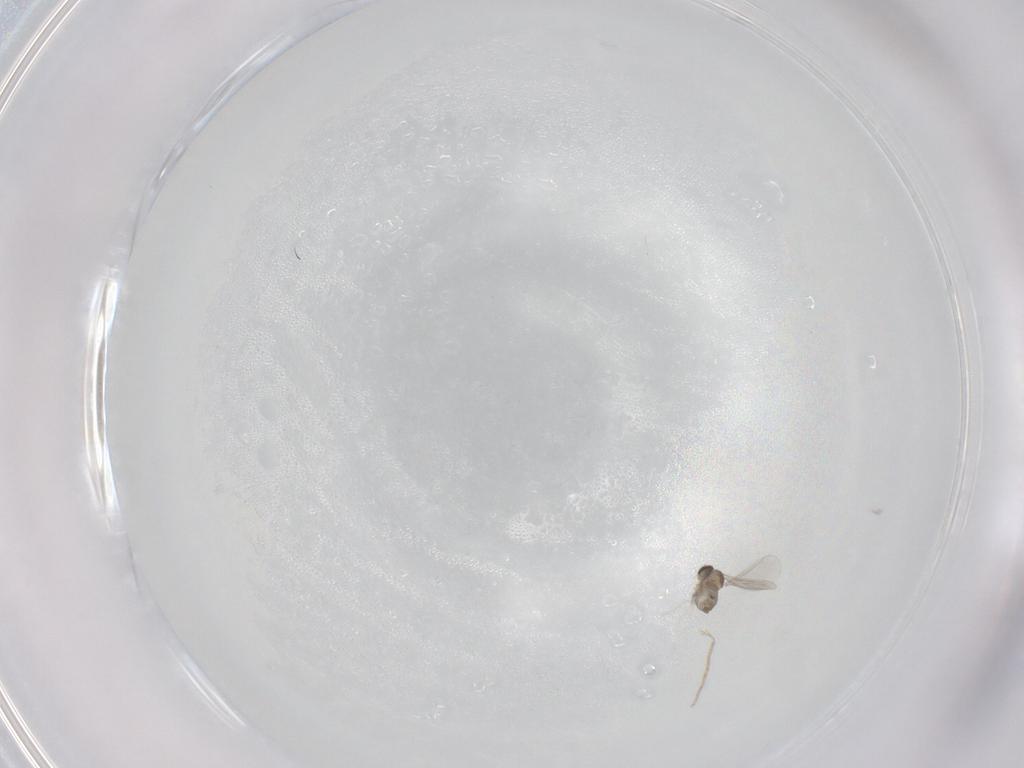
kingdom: Animalia
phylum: Arthropoda
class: Insecta
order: Diptera
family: Cecidomyiidae
